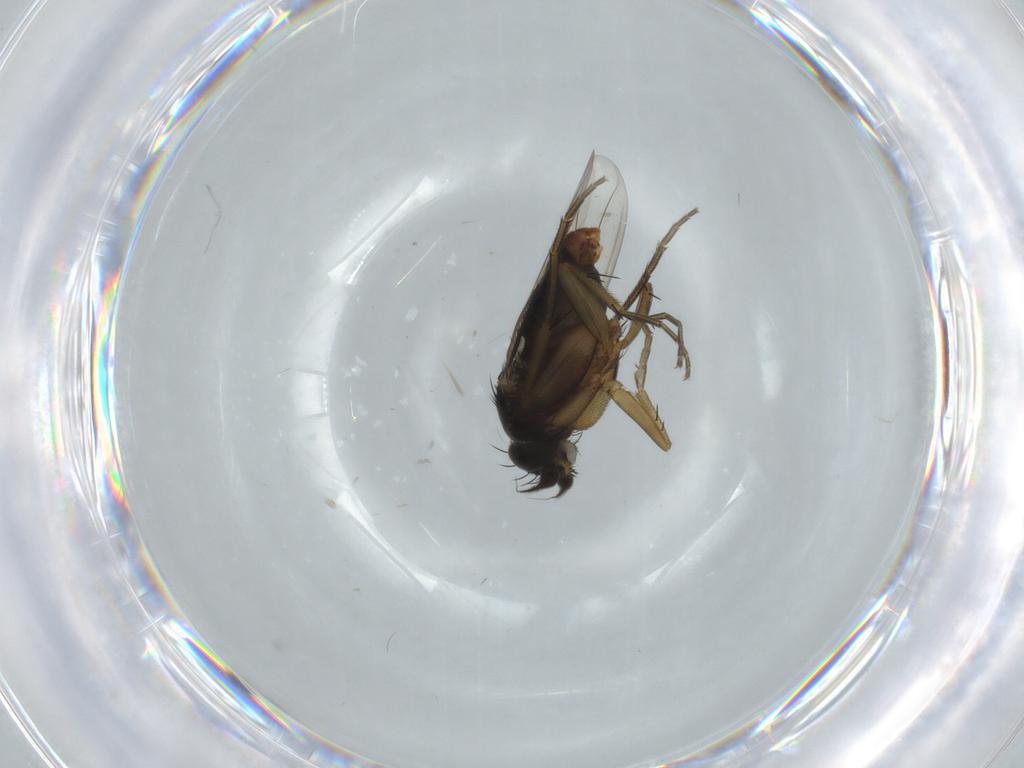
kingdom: Animalia
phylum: Arthropoda
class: Insecta
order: Diptera
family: Phoridae
